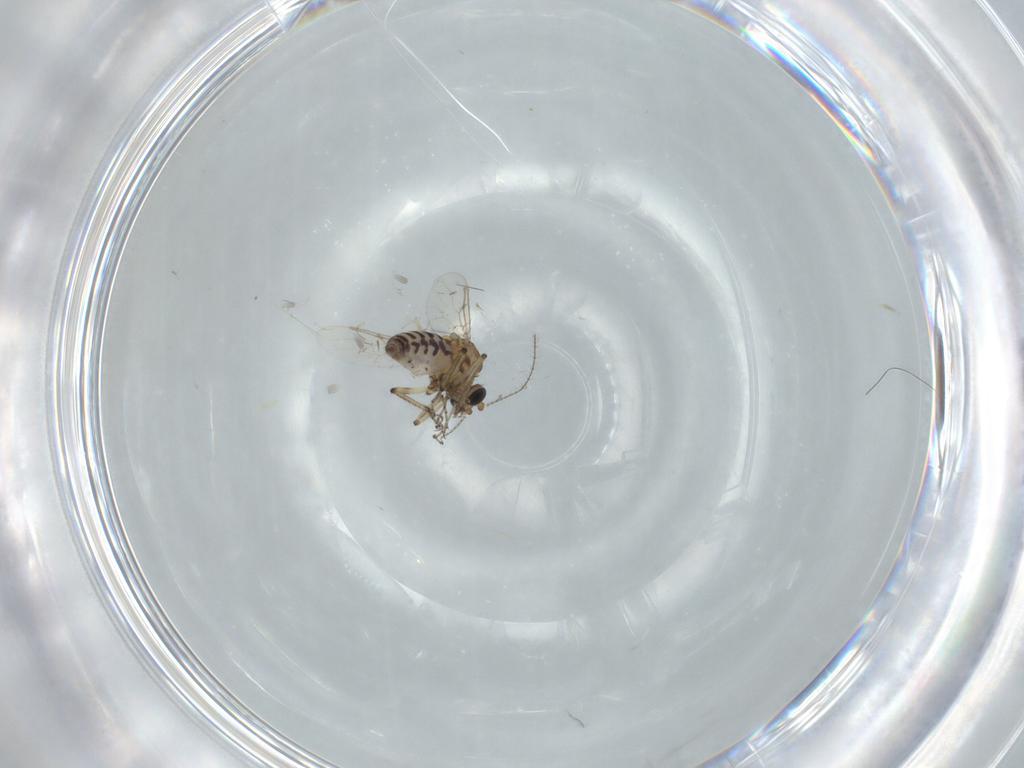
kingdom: Animalia
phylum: Arthropoda
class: Insecta
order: Diptera
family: Ceratopogonidae
